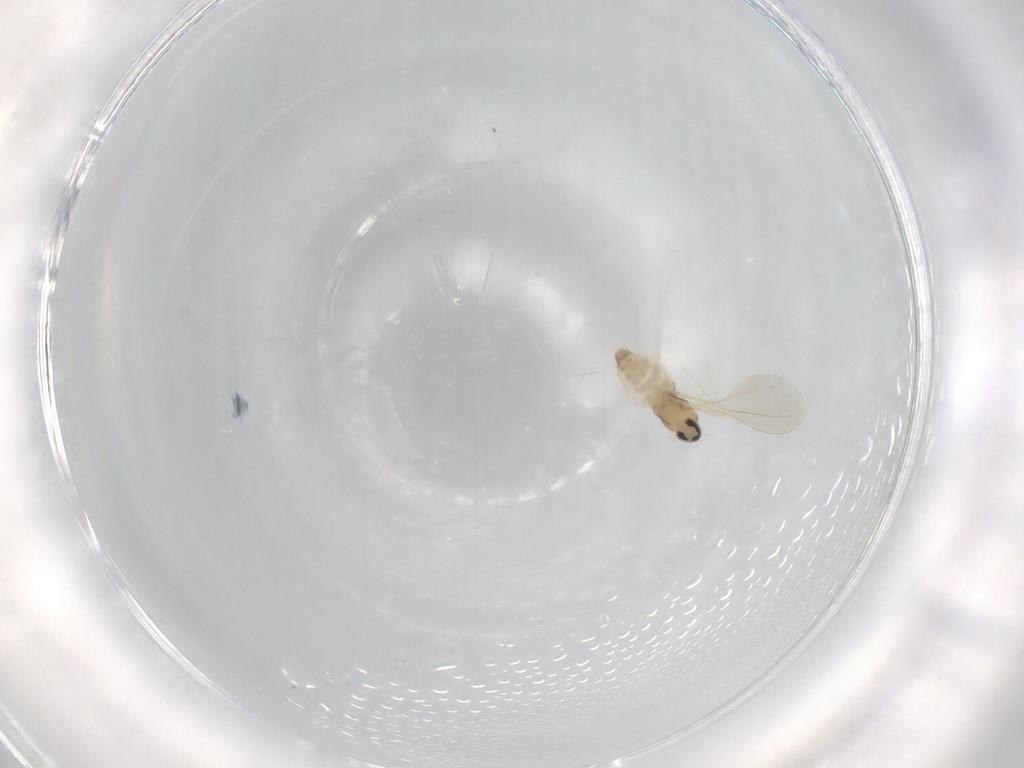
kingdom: Animalia
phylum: Arthropoda
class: Insecta
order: Diptera
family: Cecidomyiidae
